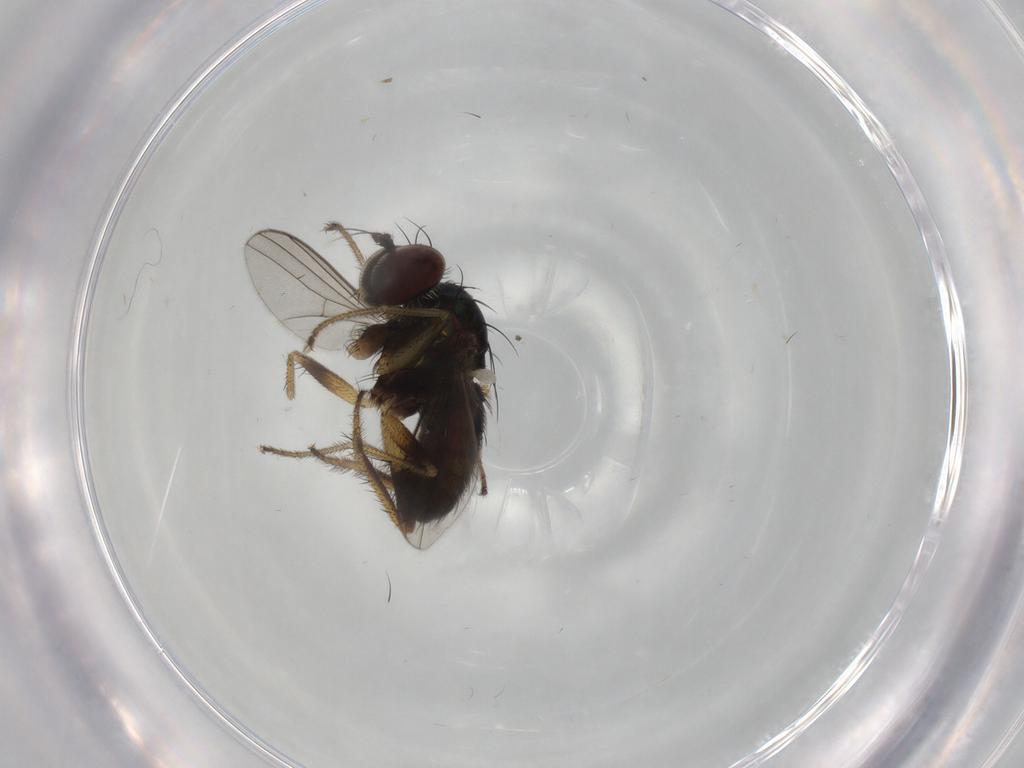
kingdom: Animalia
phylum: Arthropoda
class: Insecta
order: Diptera
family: Dolichopodidae
